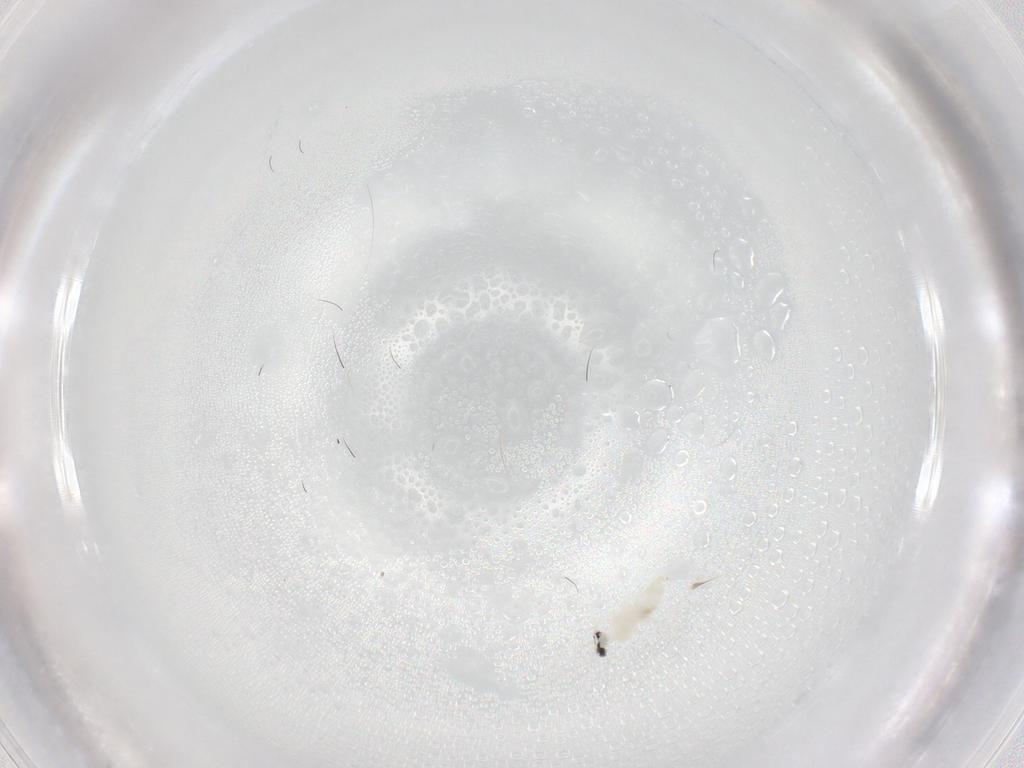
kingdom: Animalia
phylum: Arthropoda
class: Insecta
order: Diptera
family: Cecidomyiidae
